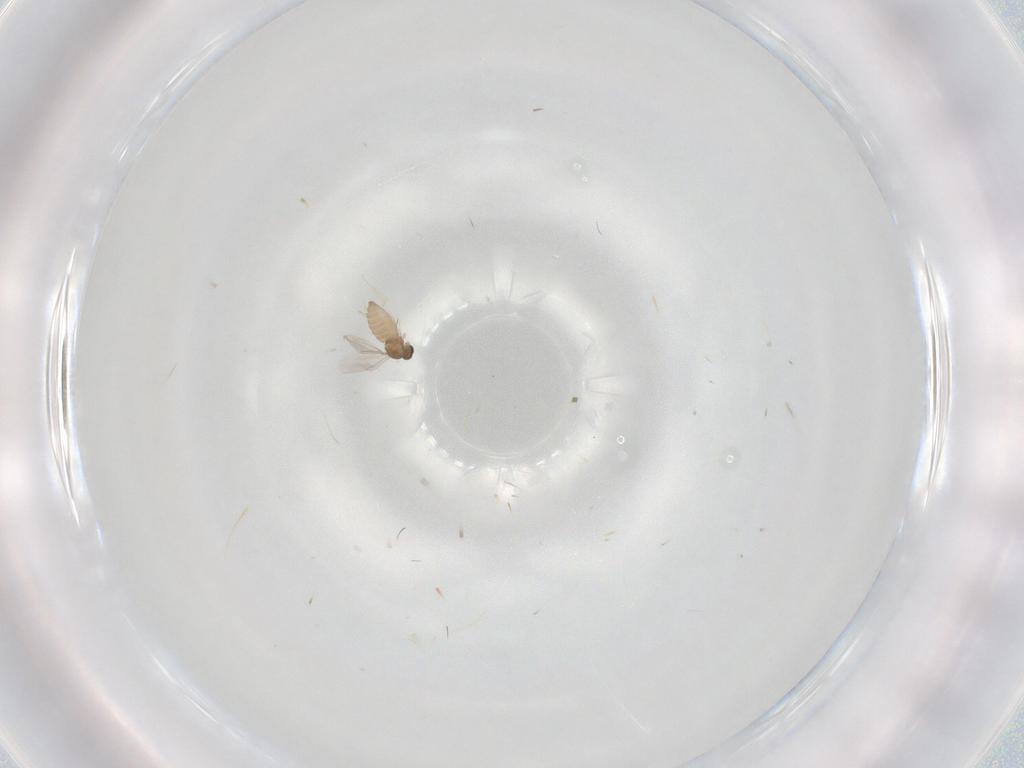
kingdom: Animalia
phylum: Arthropoda
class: Insecta
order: Diptera
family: Cecidomyiidae
